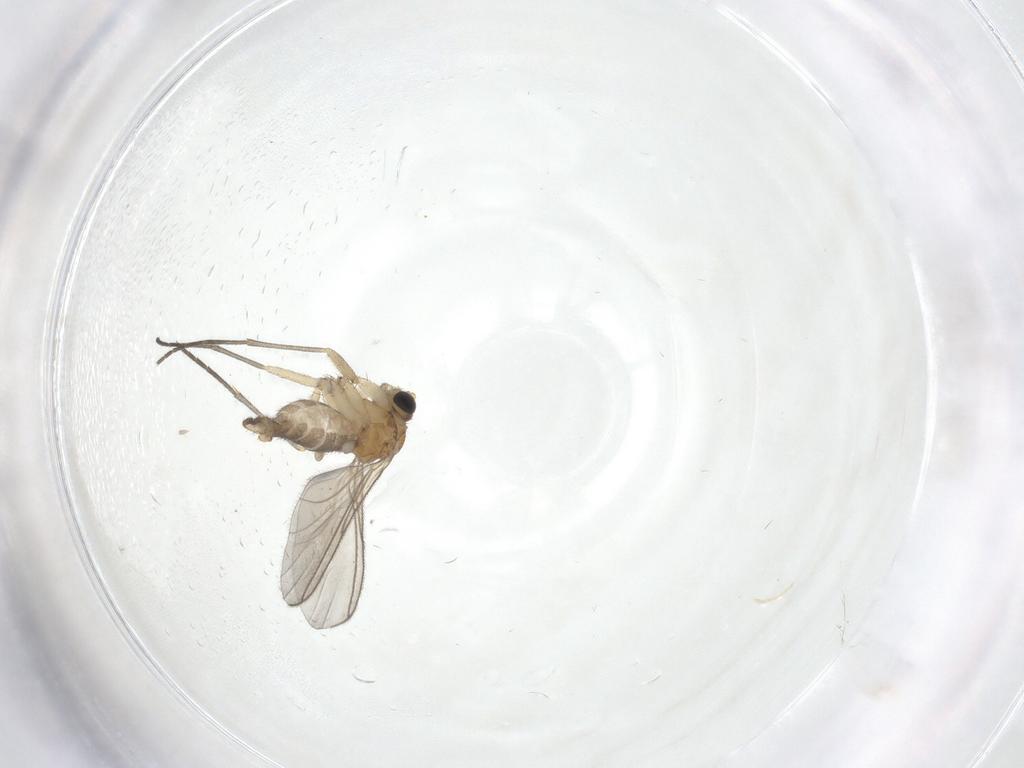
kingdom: Animalia
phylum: Arthropoda
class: Insecta
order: Diptera
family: Sciaridae
